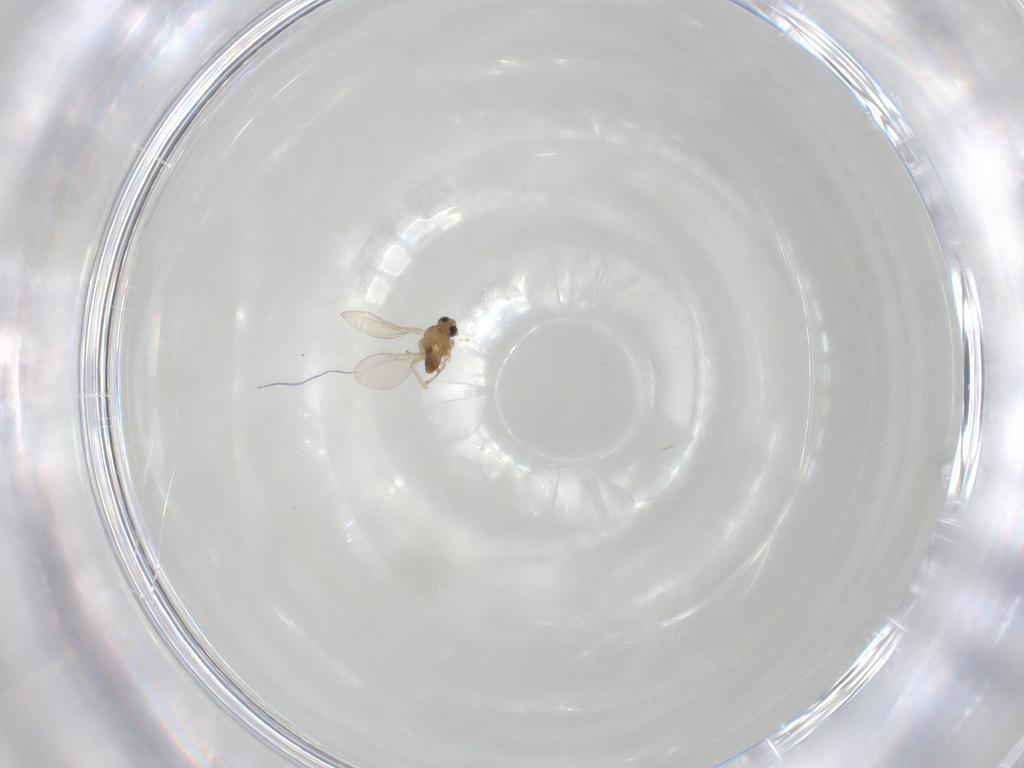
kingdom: Animalia
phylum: Arthropoda
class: Insecta
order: Diptera
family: Cecidomyiidae
